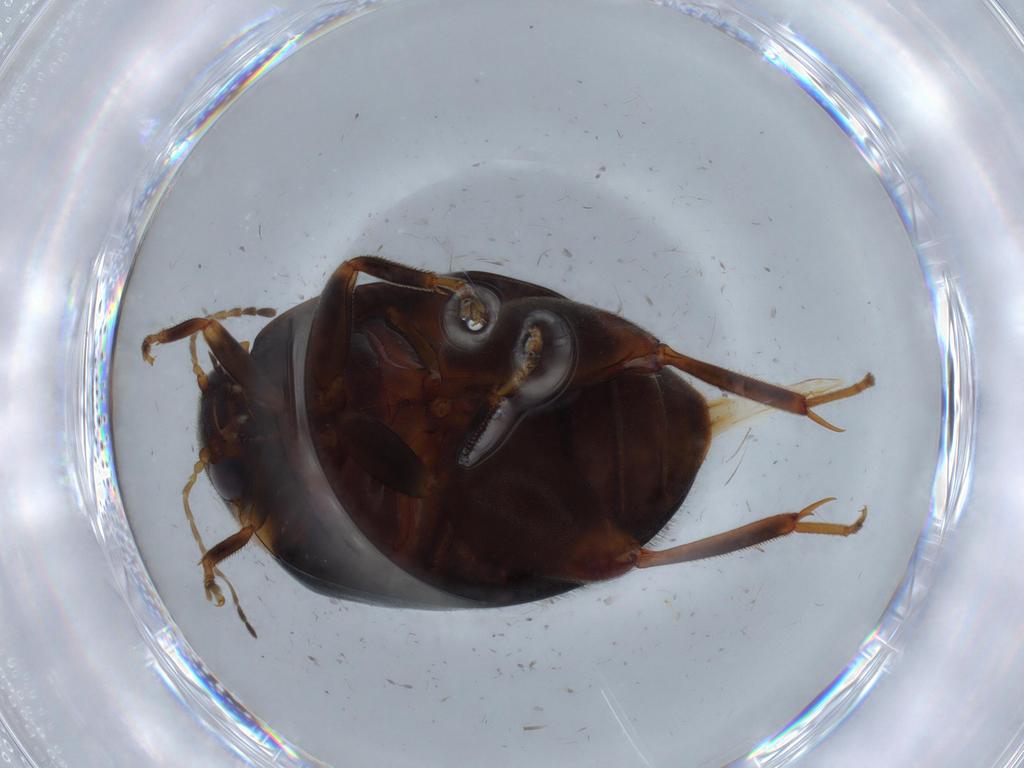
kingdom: Animalia
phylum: Arthropoda
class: Insecta
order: Coleoptera
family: Scirtidae
